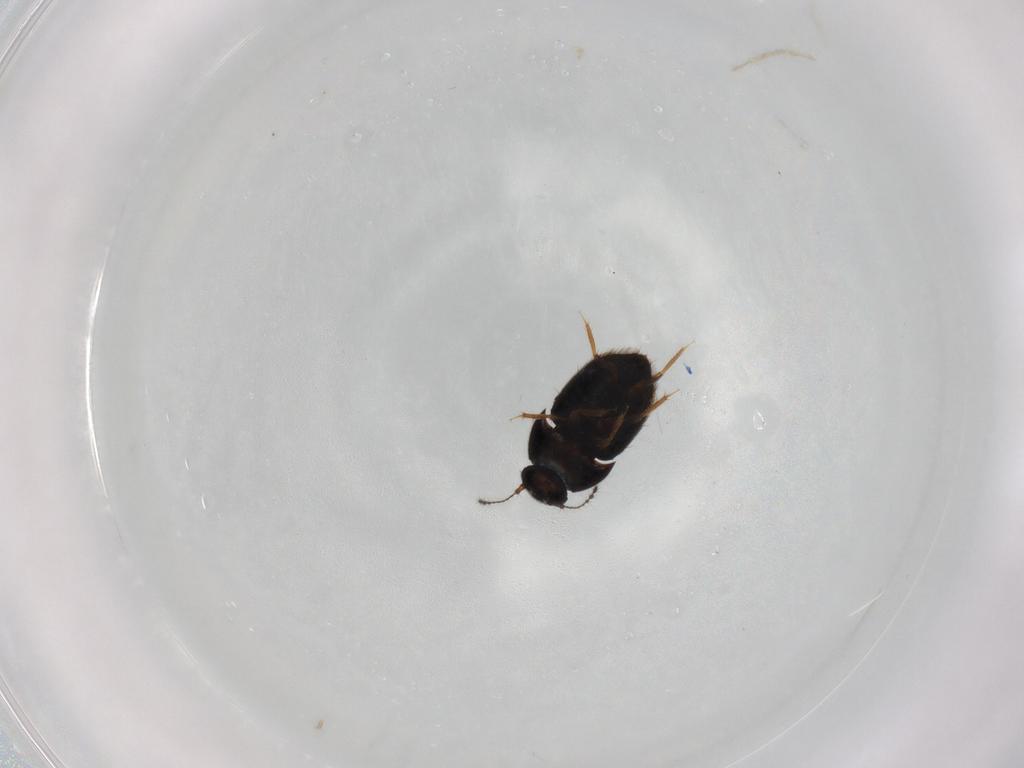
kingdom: Animalia
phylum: Arthropoda
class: Insecta
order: Coleoptera
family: Ptiliidae
